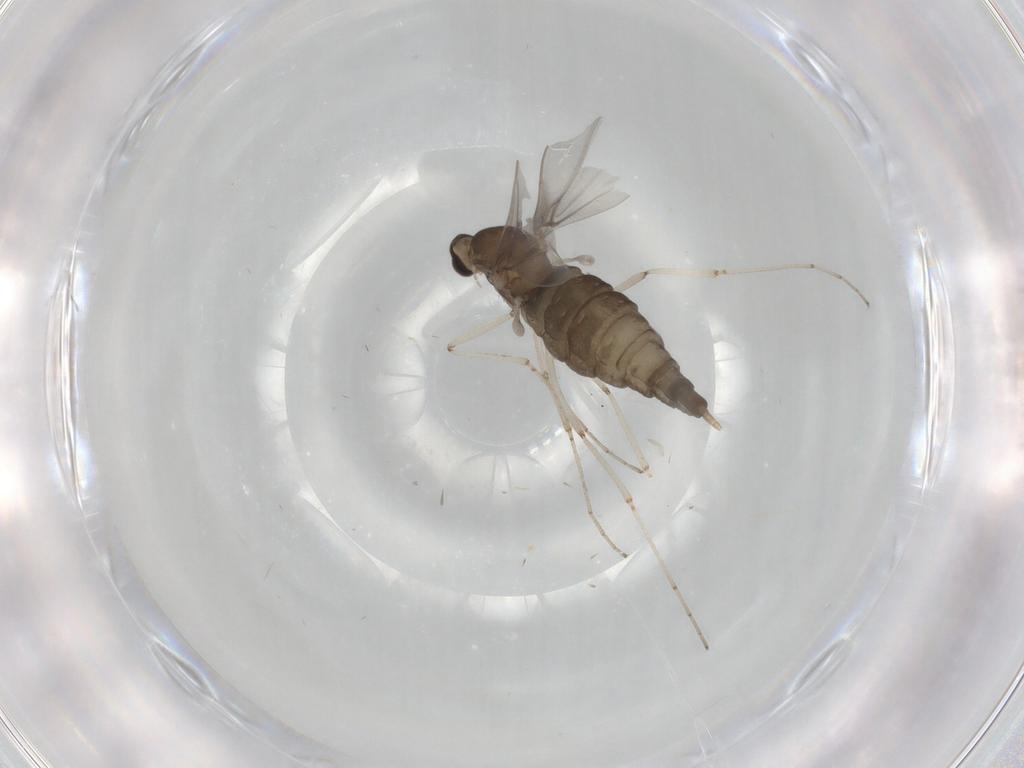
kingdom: Animalia
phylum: Arthropoda
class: Insecta
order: Diptera
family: Cecidomyiidae
